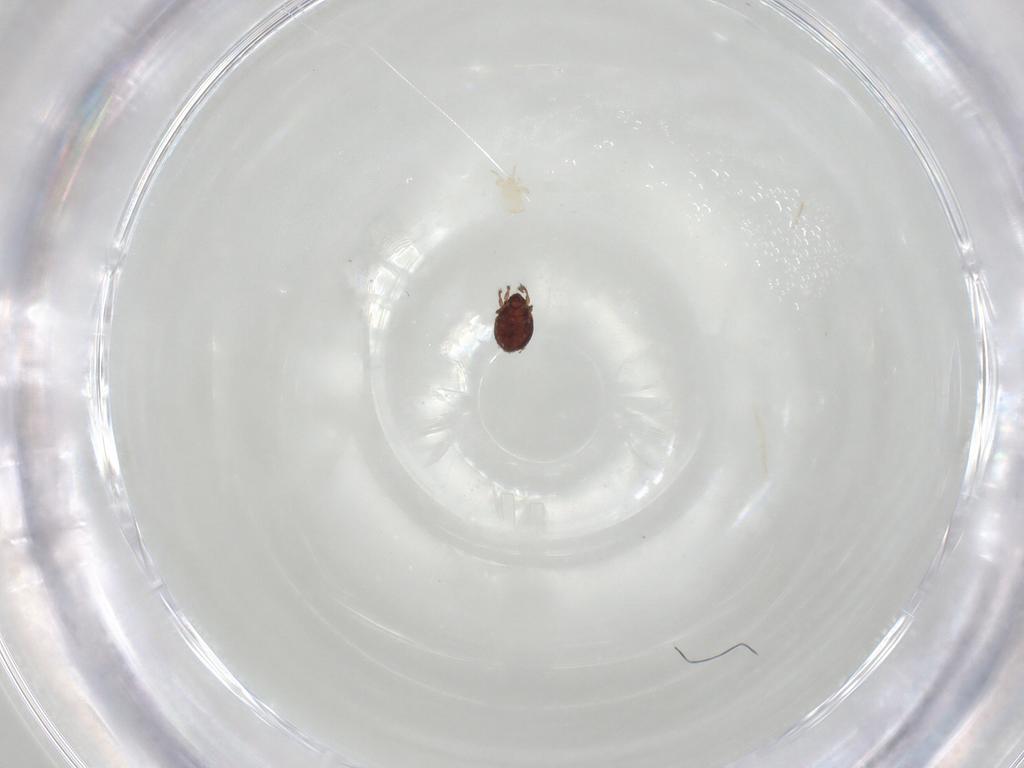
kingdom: Animalia
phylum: Arthropoda
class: Arachnida
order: Sarcoptiformes
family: Scheloribatidae
